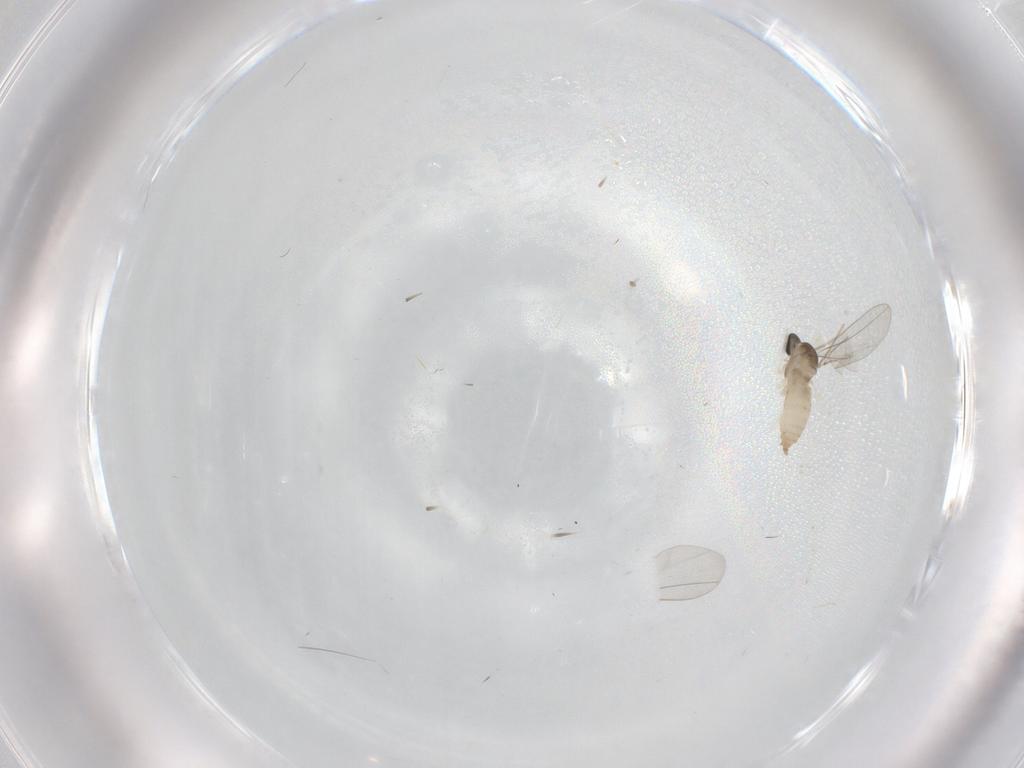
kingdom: Animalia
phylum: Arthropoda
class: Insecta
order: Diptera
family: Cecidomyiidae
